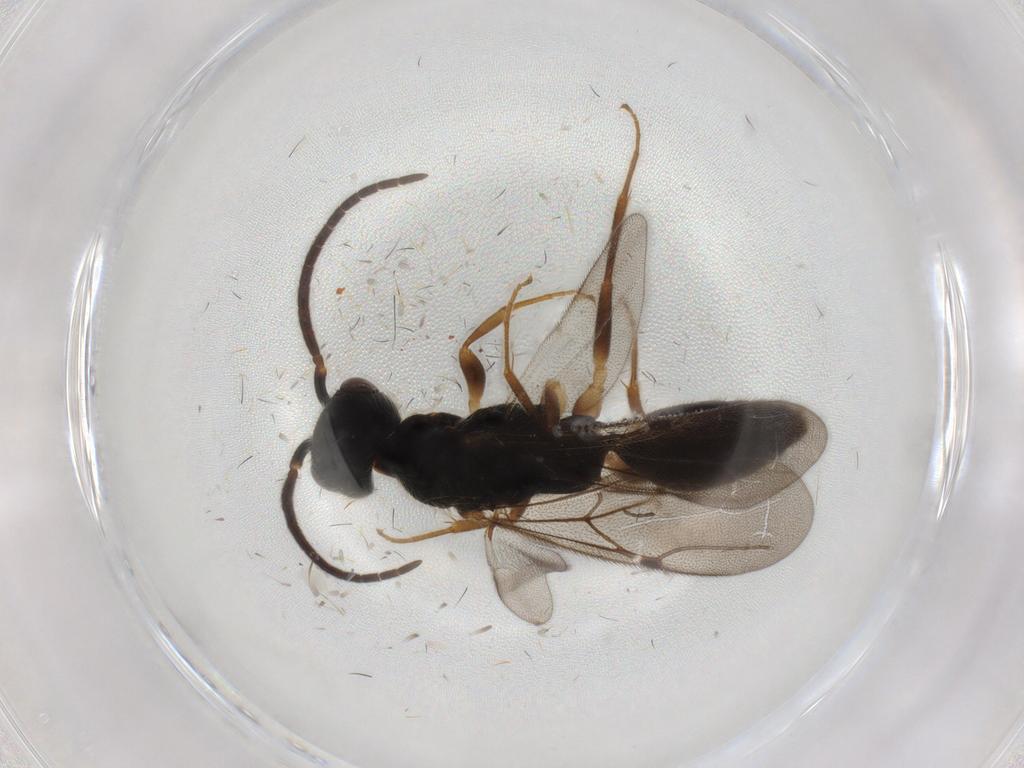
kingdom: Animalia
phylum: Arthropoda
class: Insecta
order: Hymenoptera
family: Bethylidae
